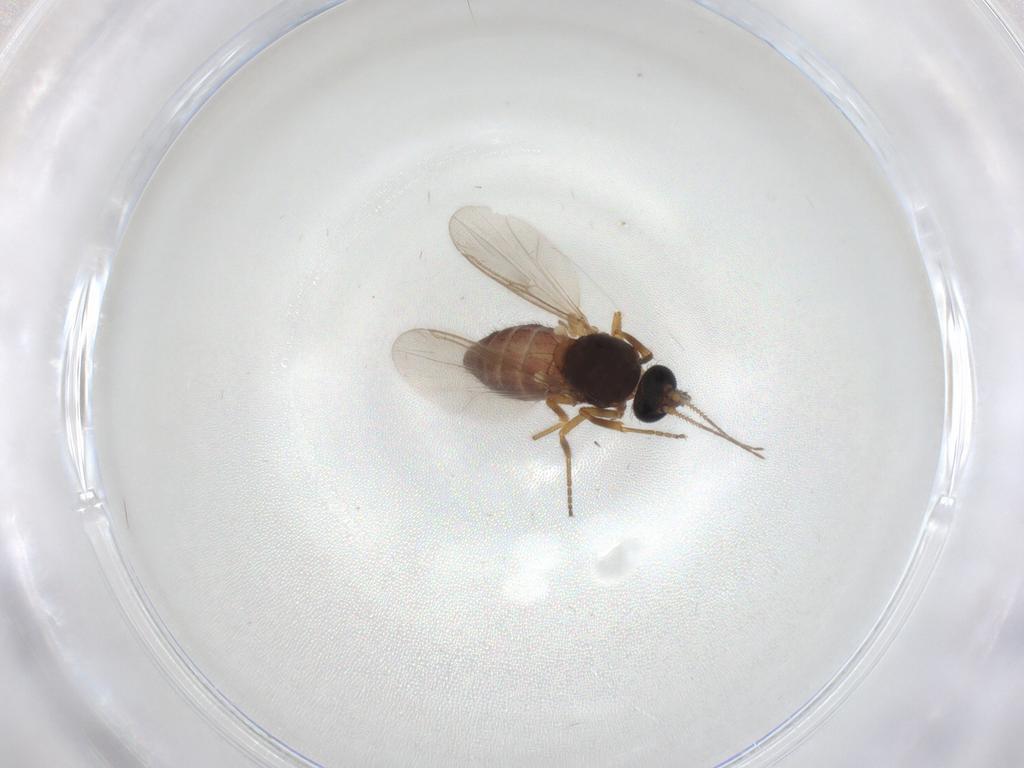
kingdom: Animalia
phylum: Arthropoda
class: Insecta
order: Diptera
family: Ceratopogonidae
